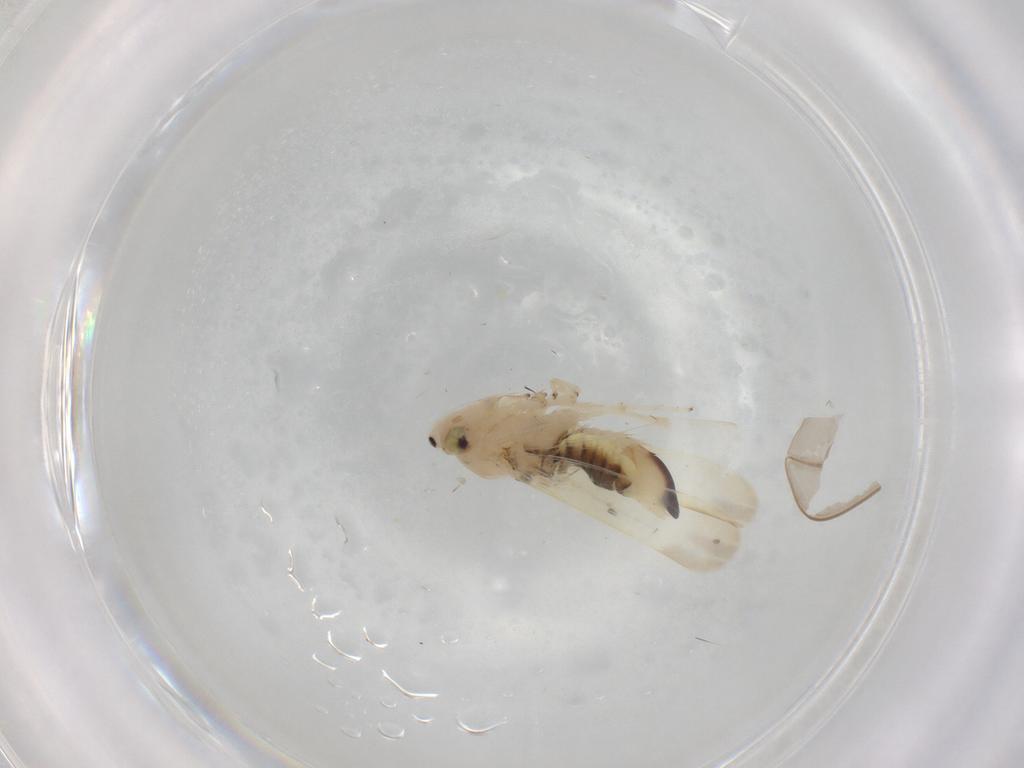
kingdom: Animalia
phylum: Arthropoda
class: Insecta
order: Hemiptera
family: Cicadellidae
